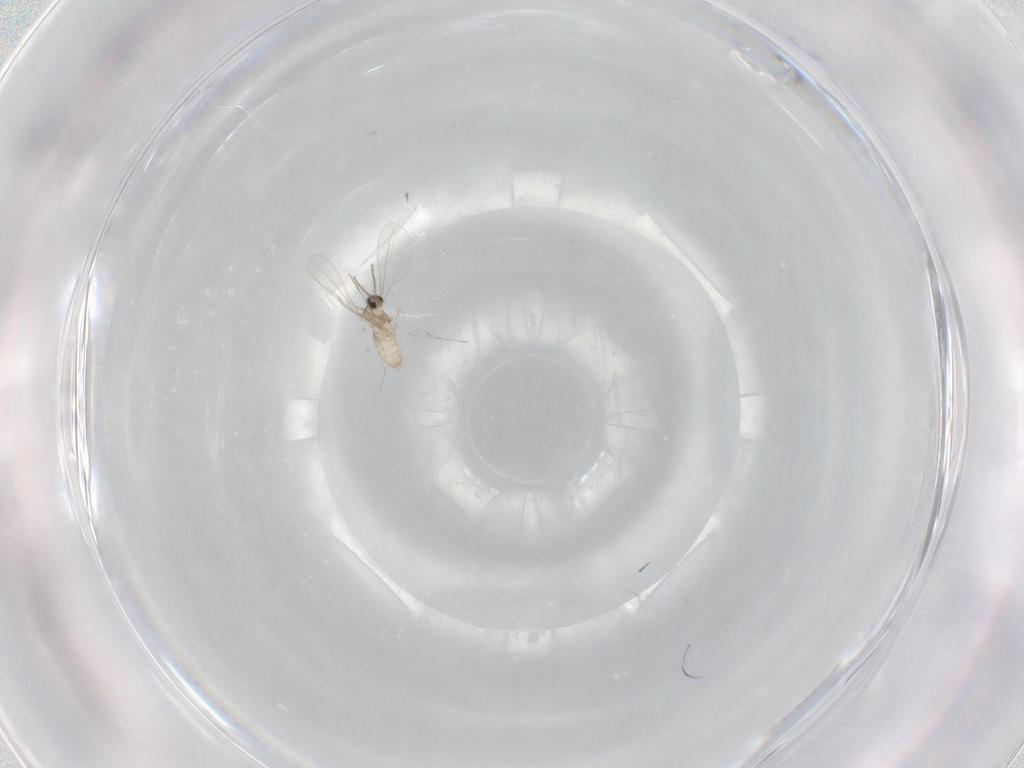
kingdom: Animalia
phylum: Arthropoda
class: Insecta
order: Diptera
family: Cecidomyiidae
